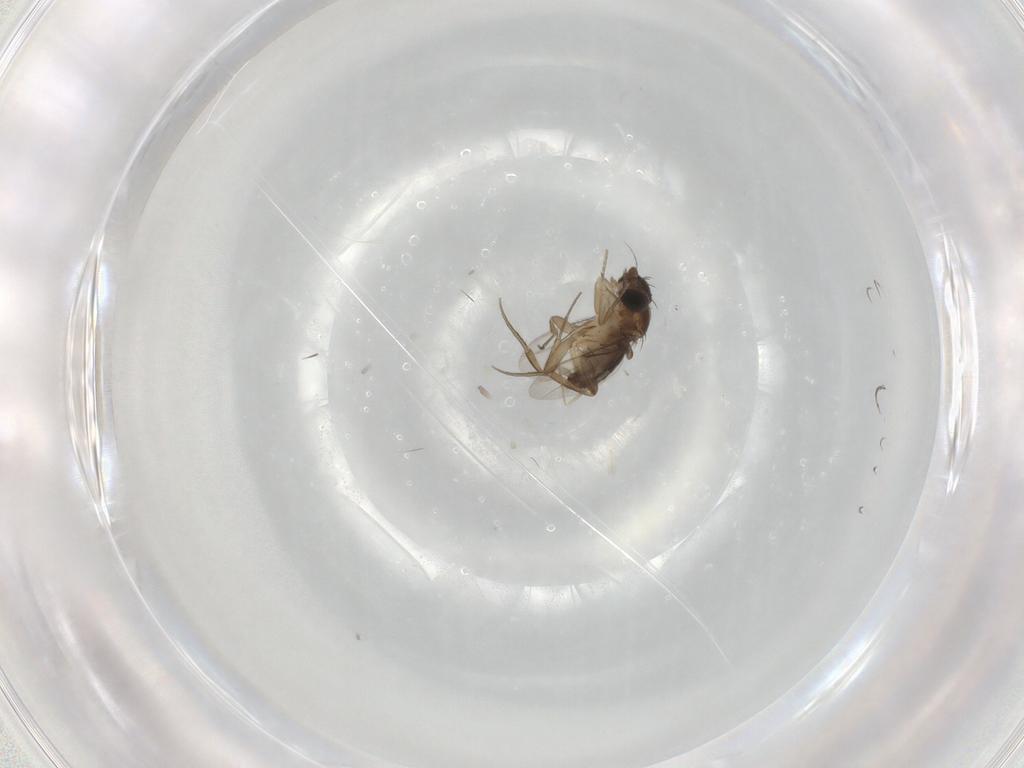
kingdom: Animalia
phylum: Arthropoda
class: Insecta
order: Diptera
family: Phoridae
